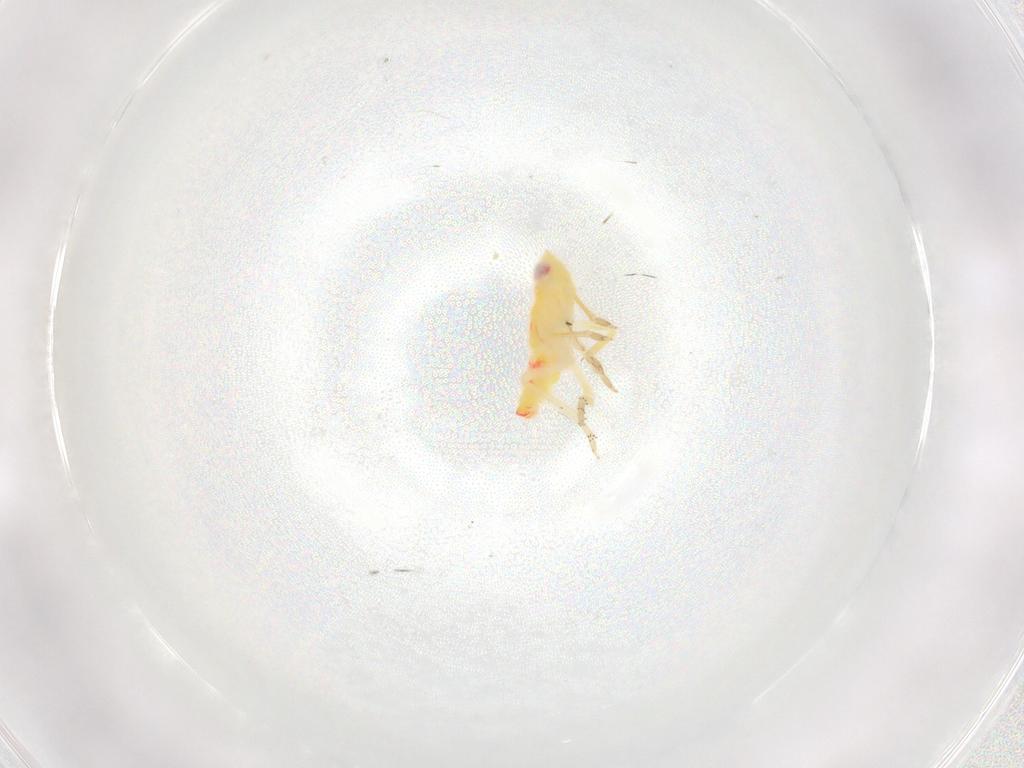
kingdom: Animalia
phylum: Arthropoda
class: Insecta
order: Hemiptera
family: Tropiduchidae
